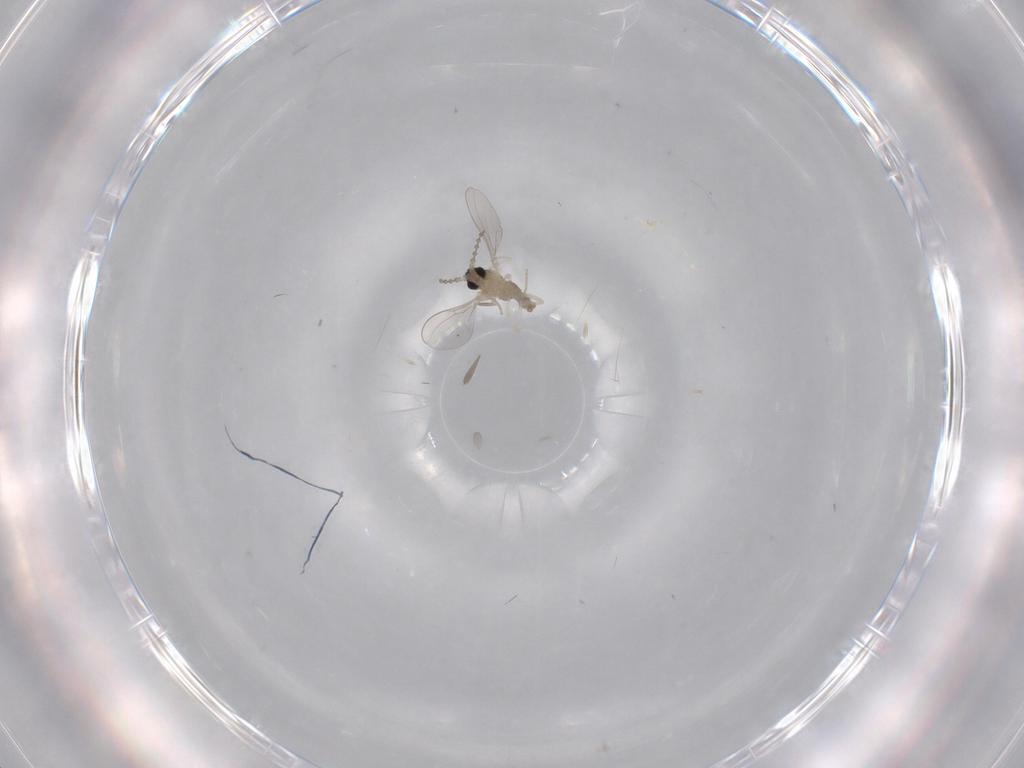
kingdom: Animalia
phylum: Arthropoda
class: Insecta
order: Diptera
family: Cecidomyiidae
